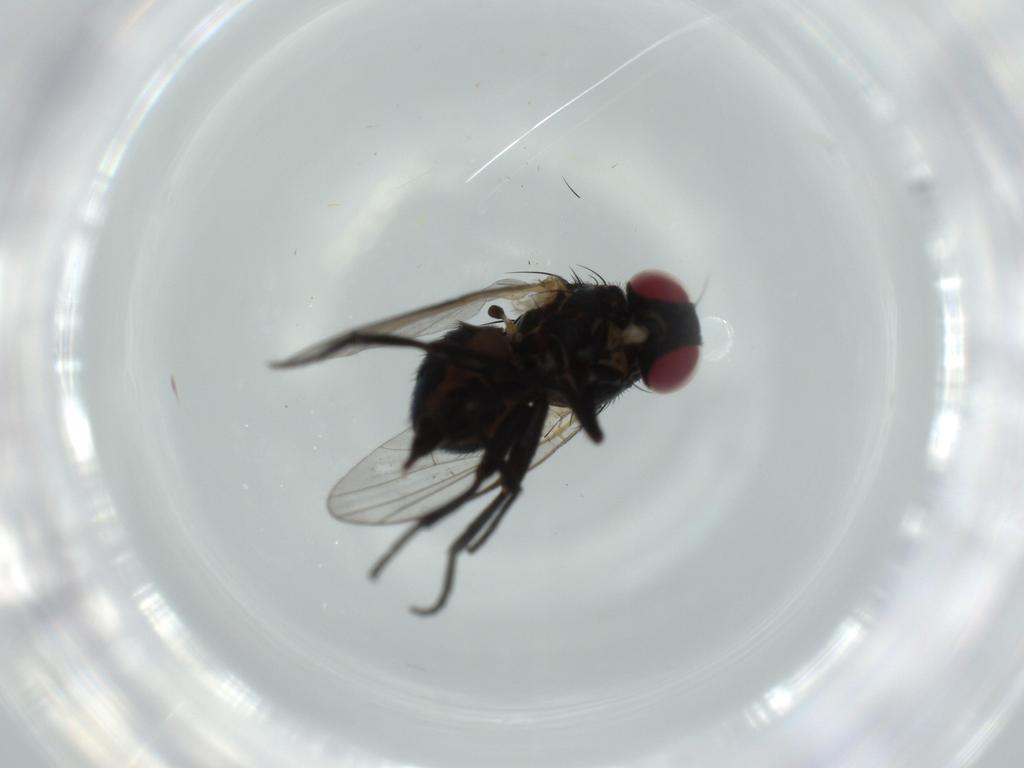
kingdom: Animalia
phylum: Arthropoda
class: Insecta
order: Diptera
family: Agromyzidae
